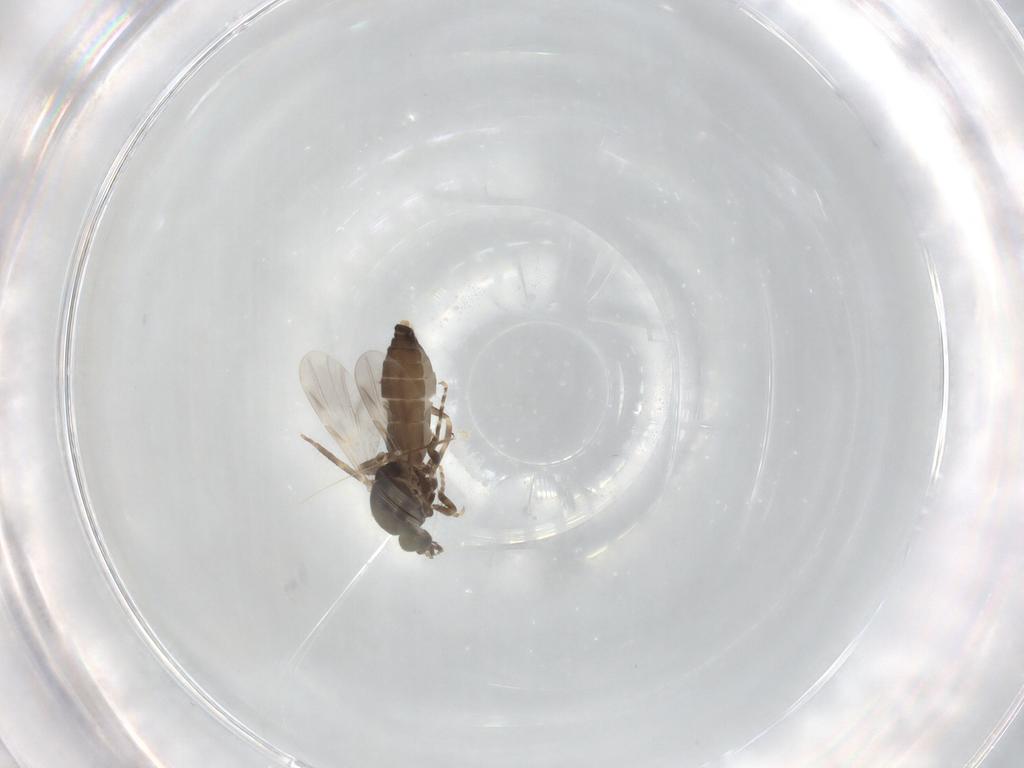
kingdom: Animalia
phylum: Arthropoda
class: Insecta
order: Diptera
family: Ceratopogonidae
